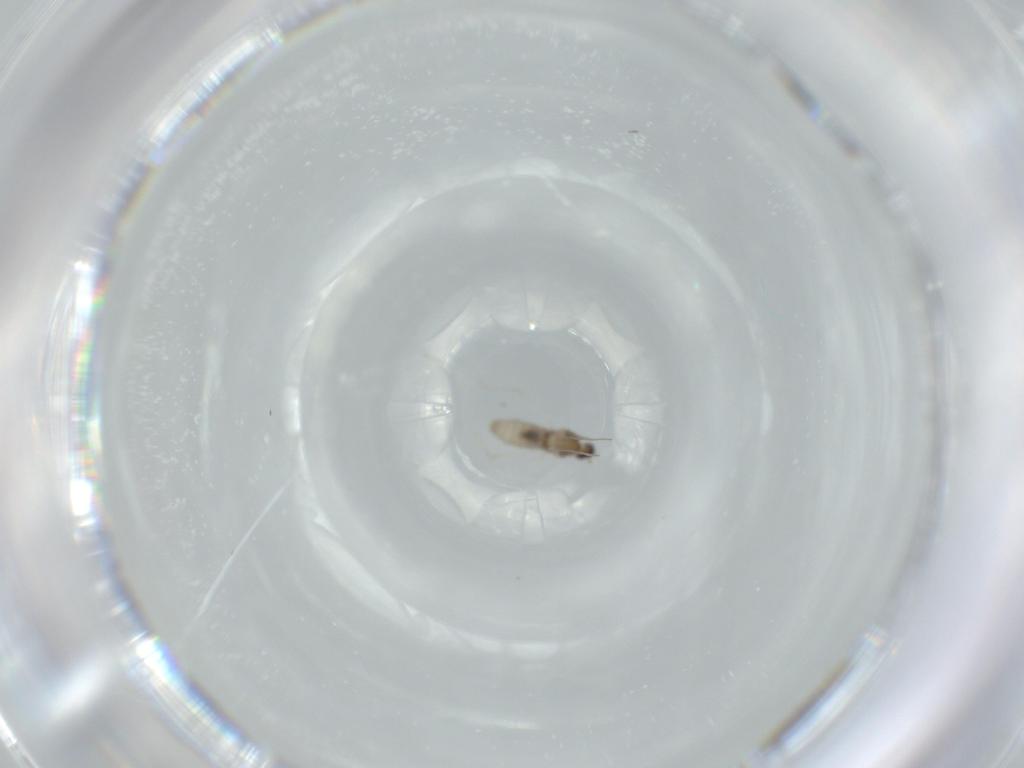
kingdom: Animalia
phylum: Arthropoda
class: Insecta
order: Diptera
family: Cecidomyiidae
